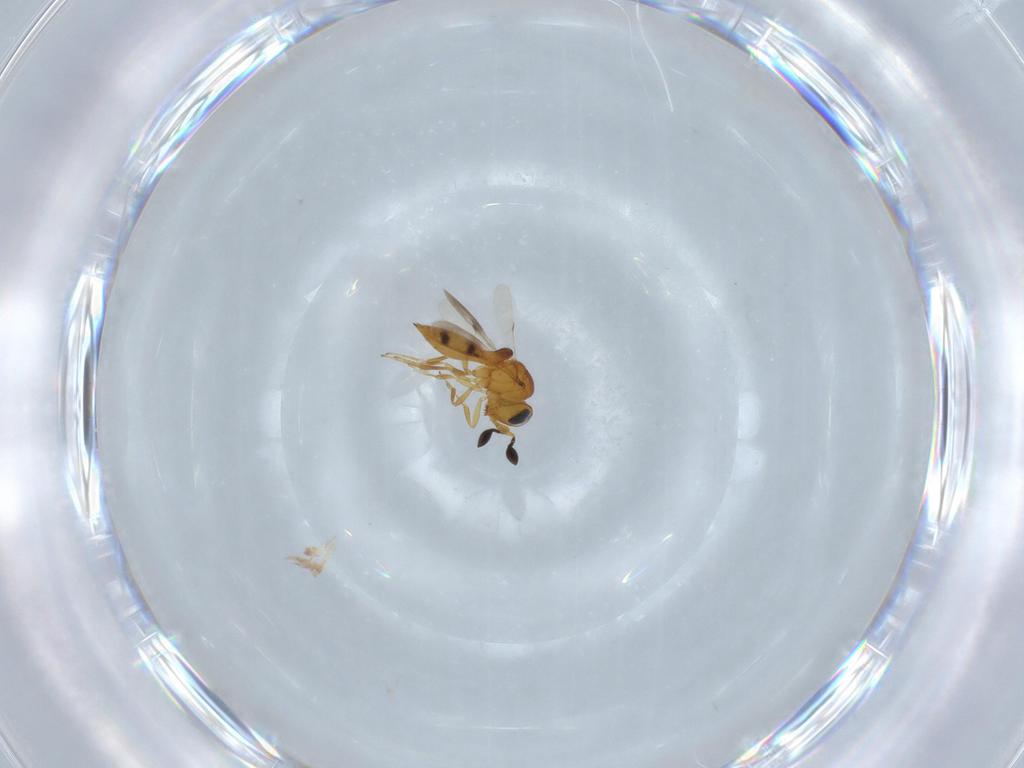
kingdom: Animalia
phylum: Arthropoda
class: Insecta
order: Hymenoptera
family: Scelionidae
